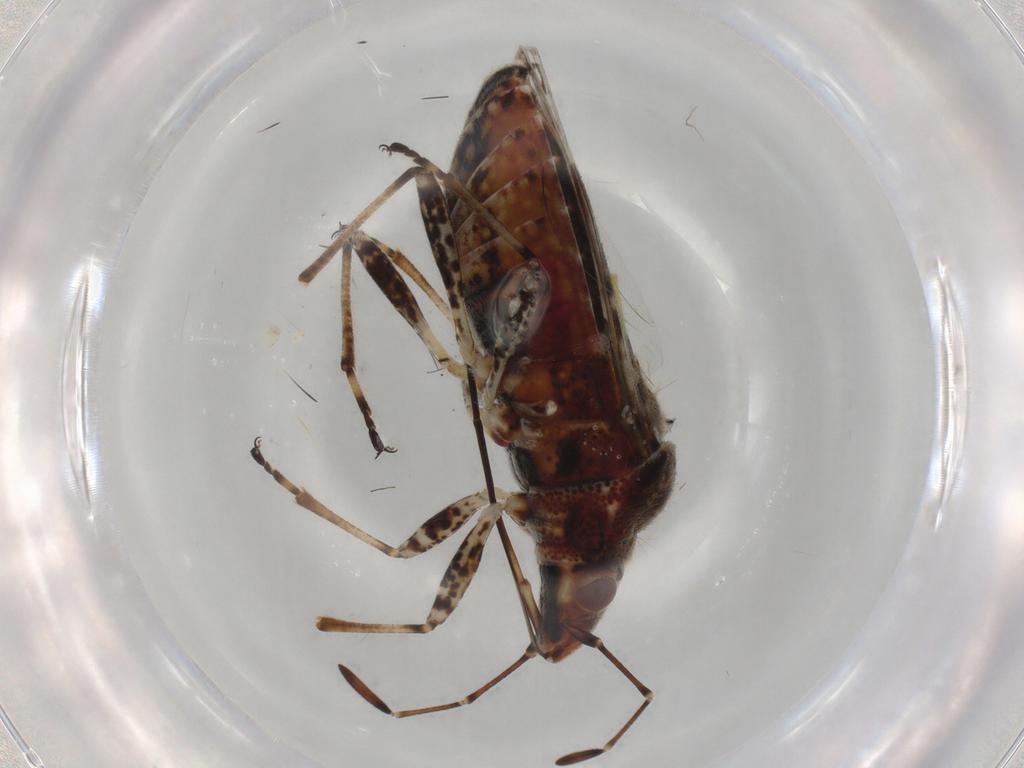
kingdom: Animalia
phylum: Arthropoda
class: Insecta
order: Hemiptera
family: Lygaeidae
